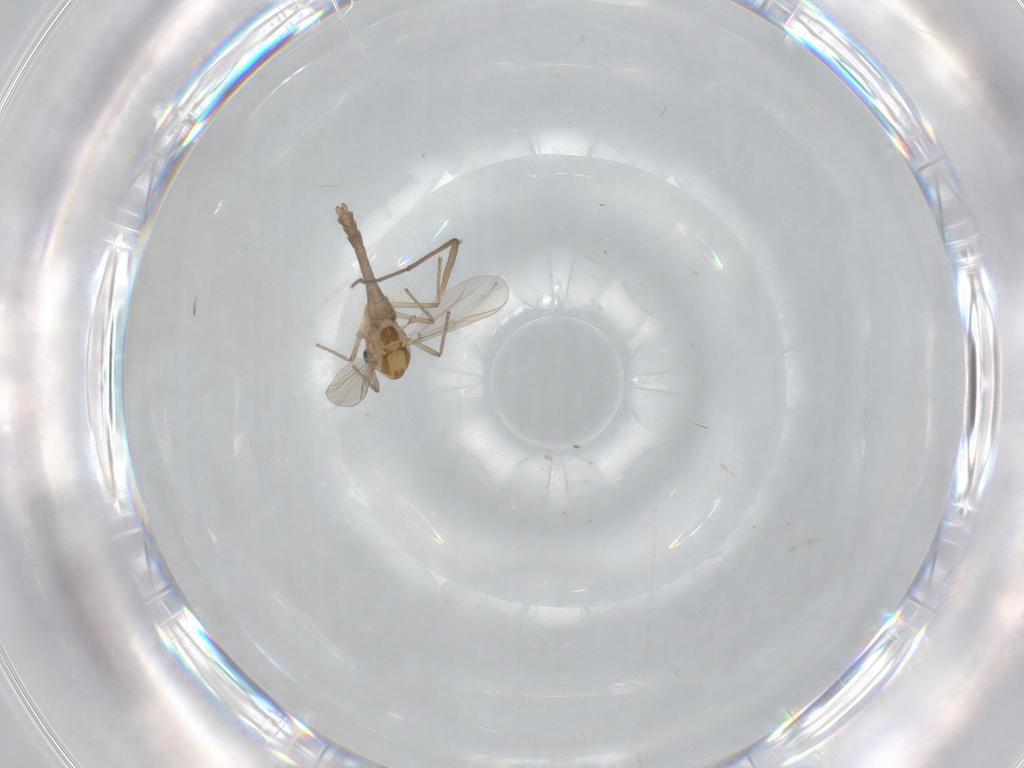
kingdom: Animalia
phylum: Arthropoda
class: Insecta
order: Diptera
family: Chironomidae
